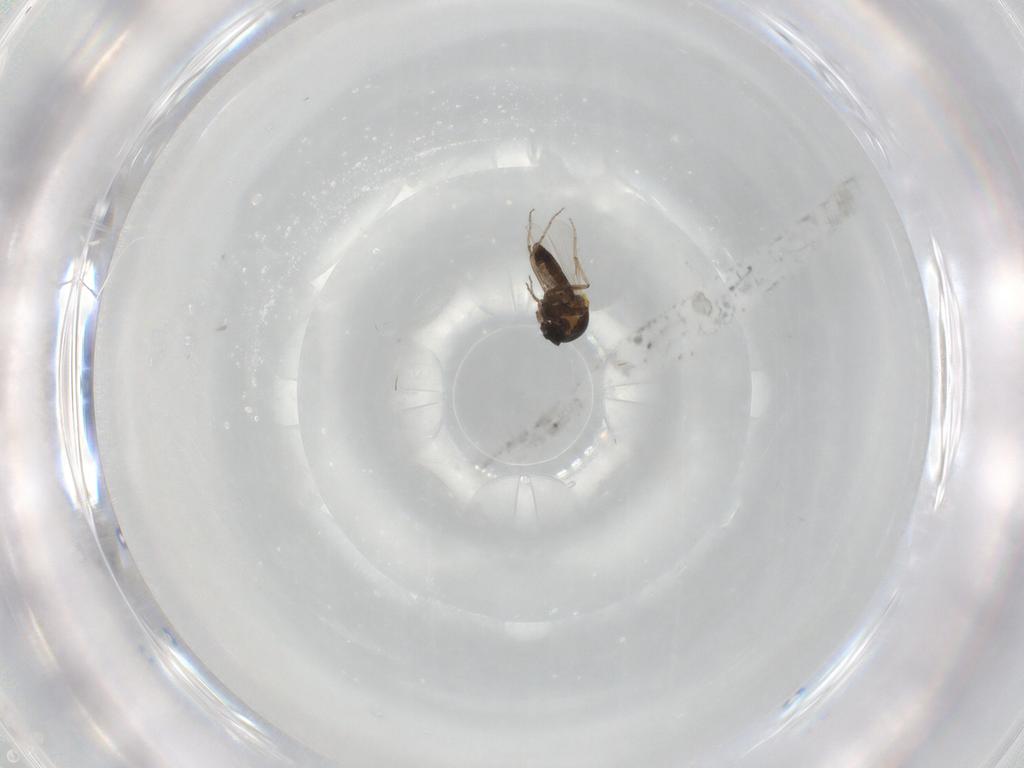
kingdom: Animalia
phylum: Arthropoda
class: Insecta
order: Diptera
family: Ceratopogonidae
